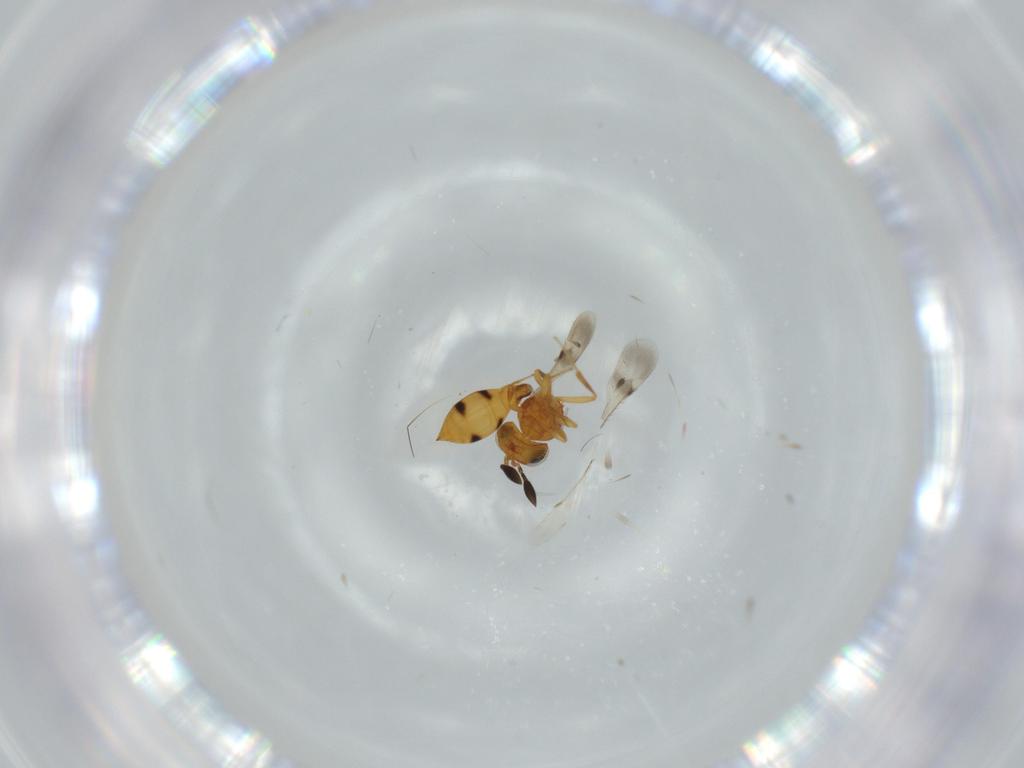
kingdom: Animalia
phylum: Arthropoda
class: Insecta
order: Hymenoptera
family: Scelionidae
